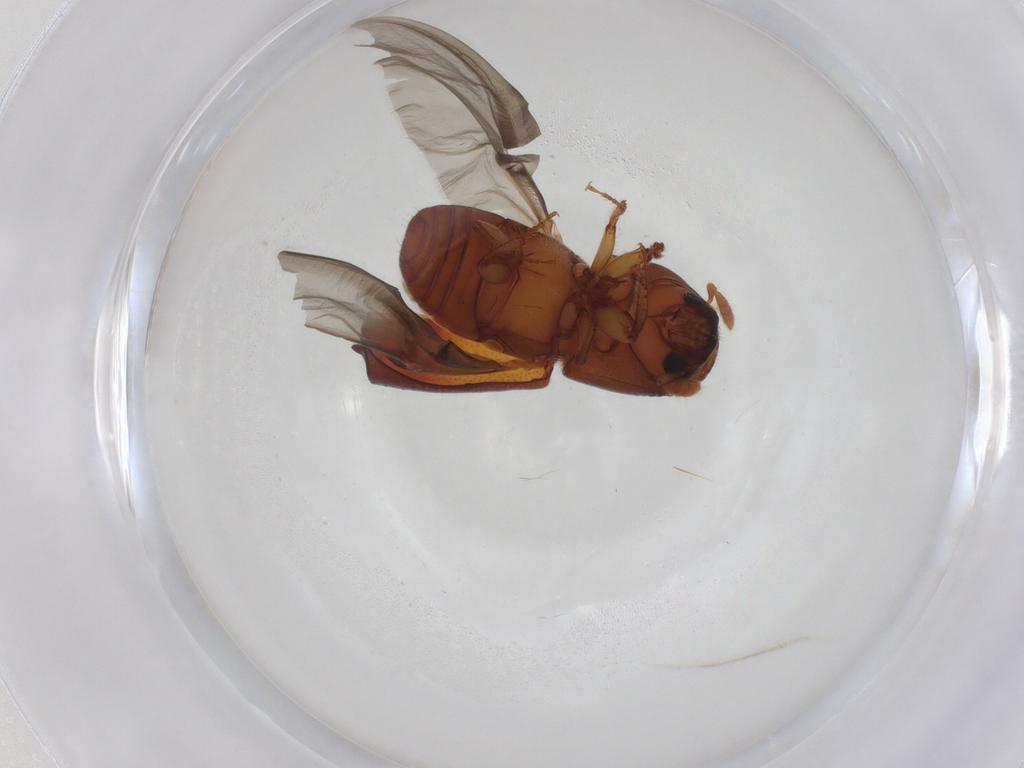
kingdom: Animalia
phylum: Arthropoda
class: Insecta
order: Coleoptera
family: Curculionidae
